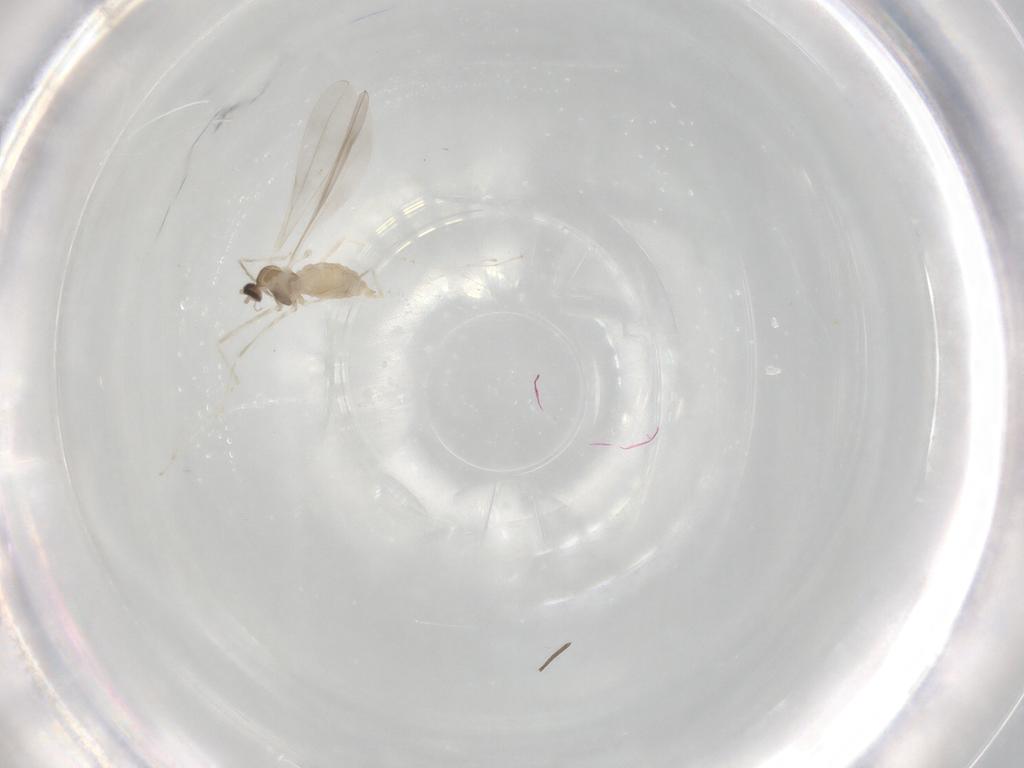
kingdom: Animalia
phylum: Arthropoda
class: Insecta
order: Diptera
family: Cecidomyiidae
